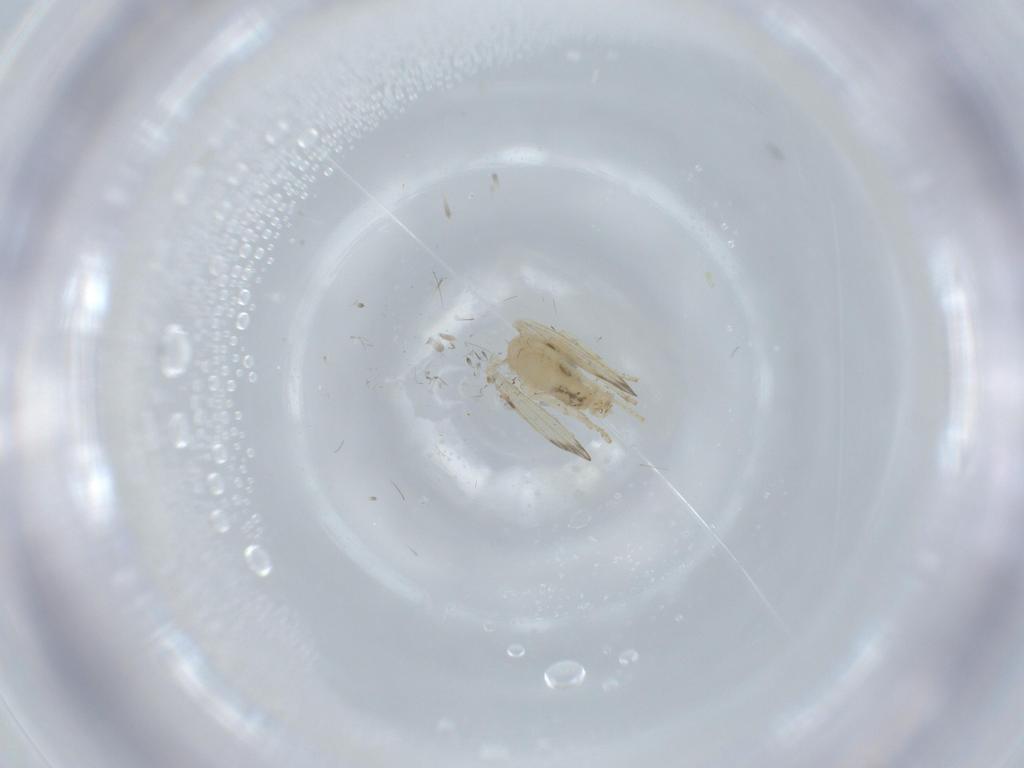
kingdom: Animalia
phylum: Arthropoda
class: Insecta
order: Diptera
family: Psychodidae
